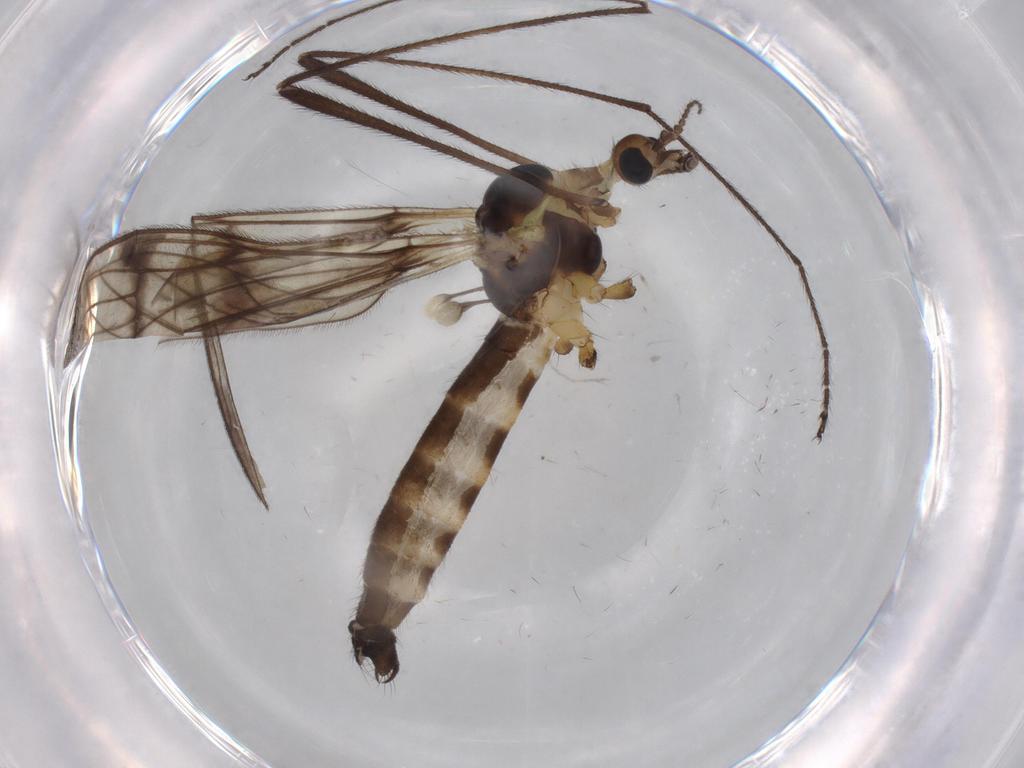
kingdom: Animalia
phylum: Arthropoda
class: Insecta
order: Diptera
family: Limoniidae
